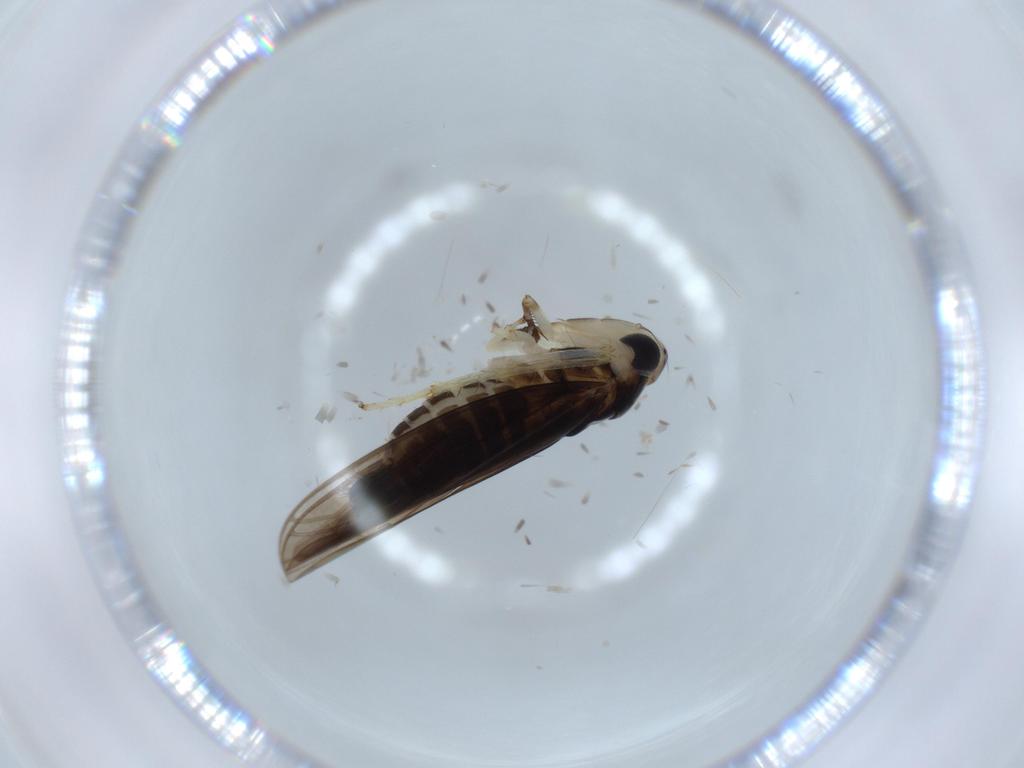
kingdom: Animalia
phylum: Arthropoda
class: Insecta
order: Hemiptera
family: Cicadellidae
